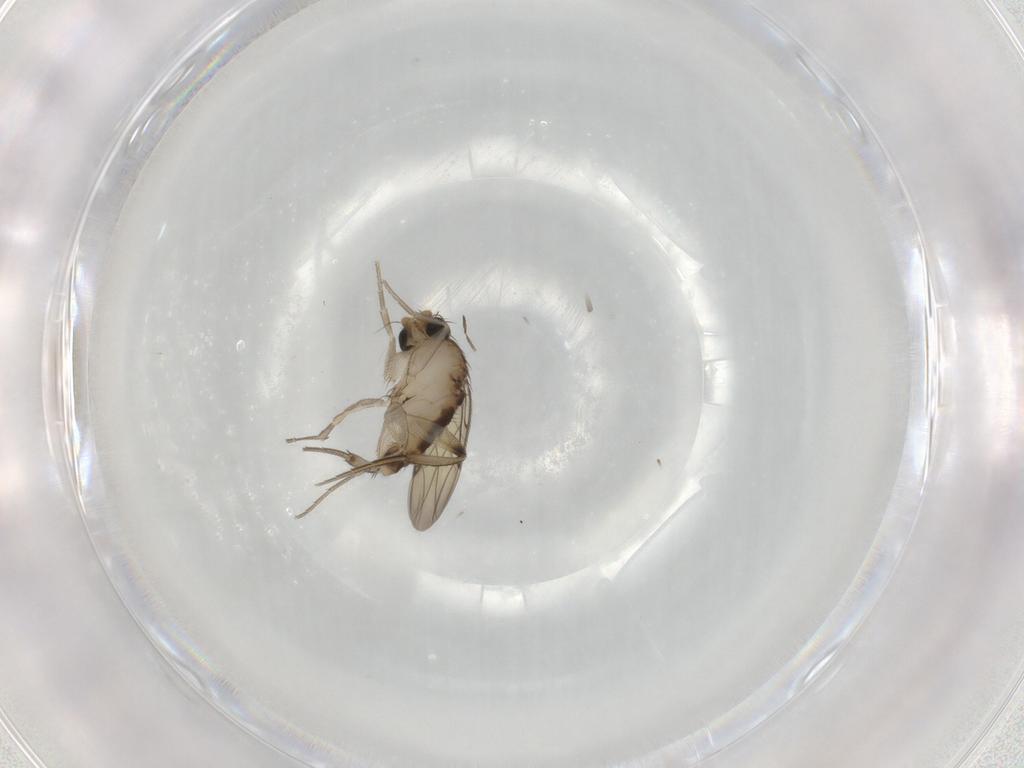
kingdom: Animalia
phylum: Arthropoda
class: Insecta
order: Diptera
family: Phoridae
